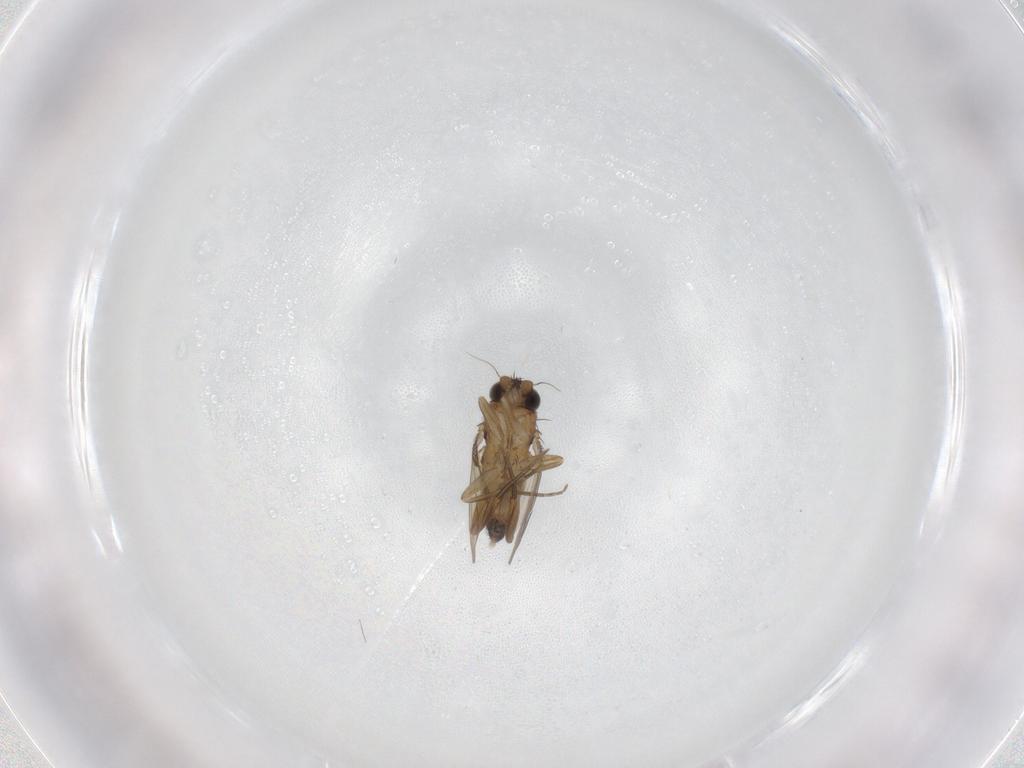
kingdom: Animalia
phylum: Arthropoda
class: Insecta
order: Diptera
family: Phoridae
